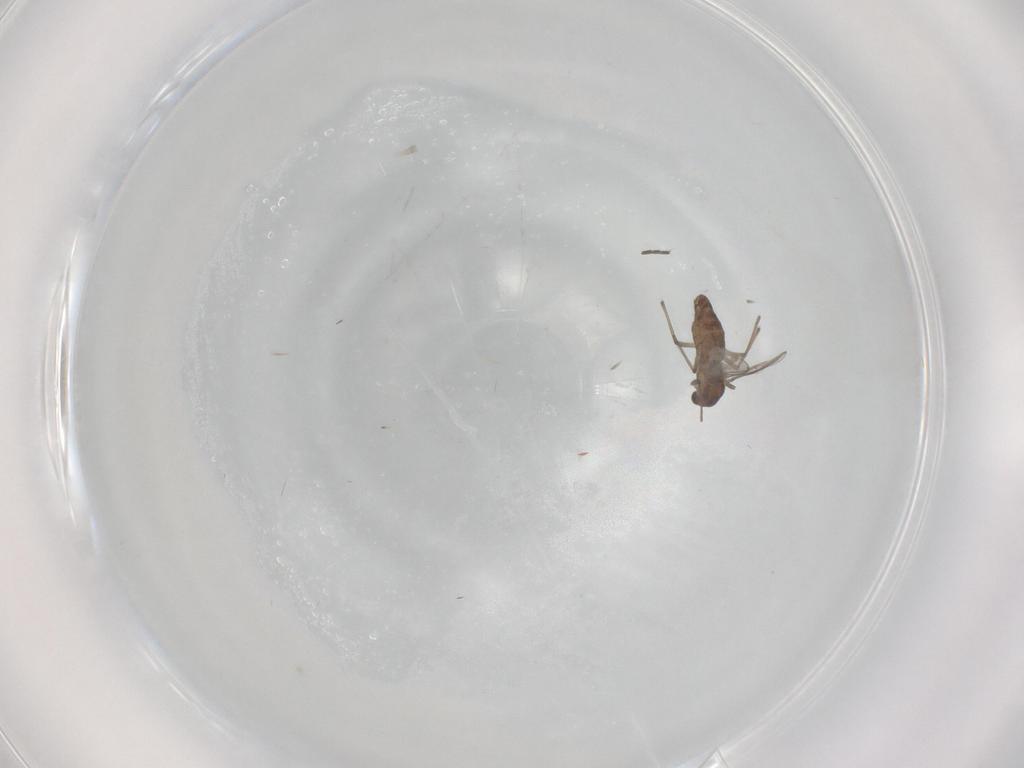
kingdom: Animalia
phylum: Arthropoda
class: Insecta
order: Diptera
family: Chironomidae
